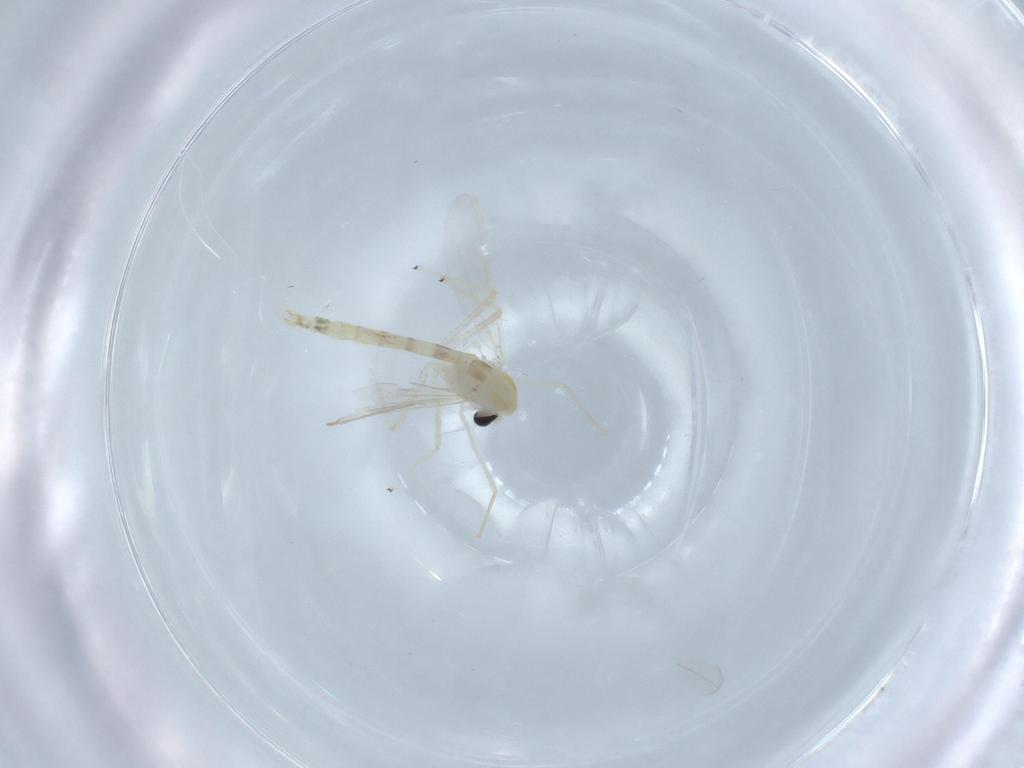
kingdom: Animalia
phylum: Arthropoda
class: Insecta
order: Diptera
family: Chironomidae
